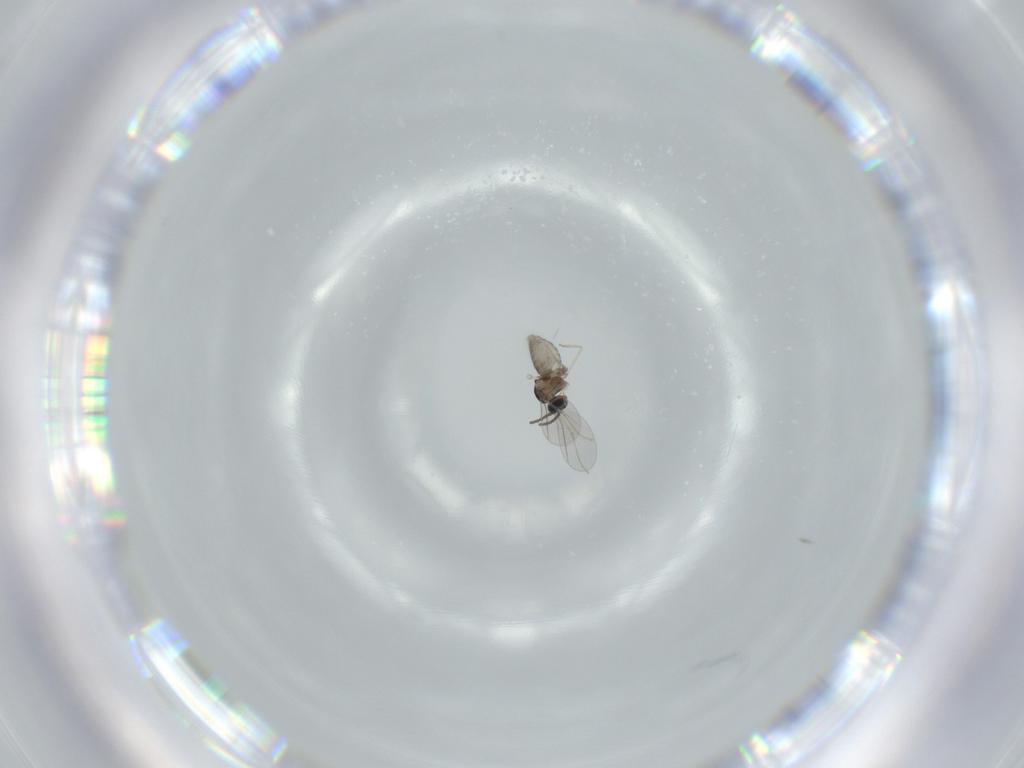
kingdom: Animalia
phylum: Arthropoda
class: Insecta
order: Diptera
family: Cecidomyiidae
